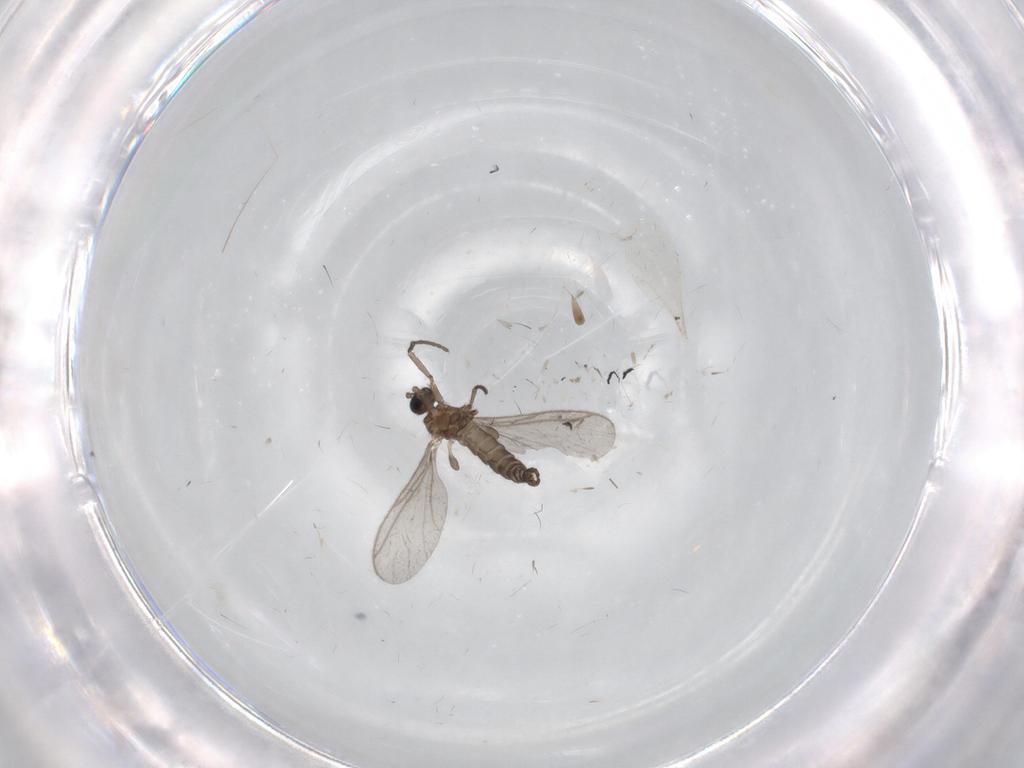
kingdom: Animalia
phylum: Arthropoda
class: Insecta
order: Diptera
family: Sciaridae
